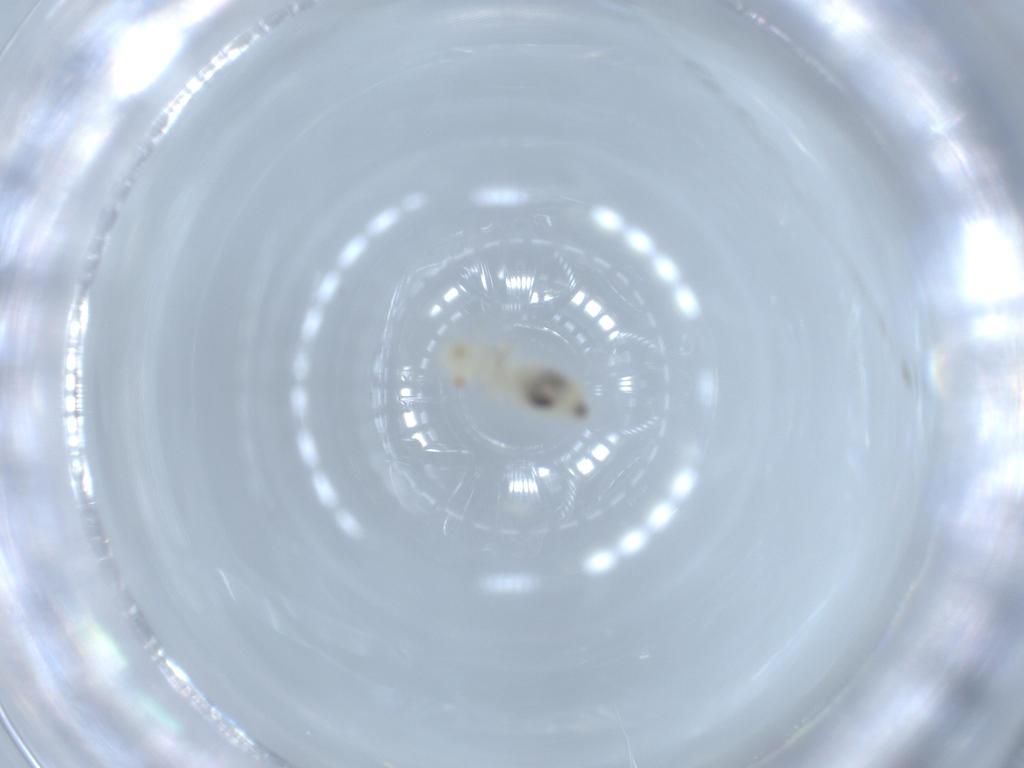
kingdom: Animalia
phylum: Arthropoda
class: Insecta
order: Psocodea
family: Caeciliusidae
